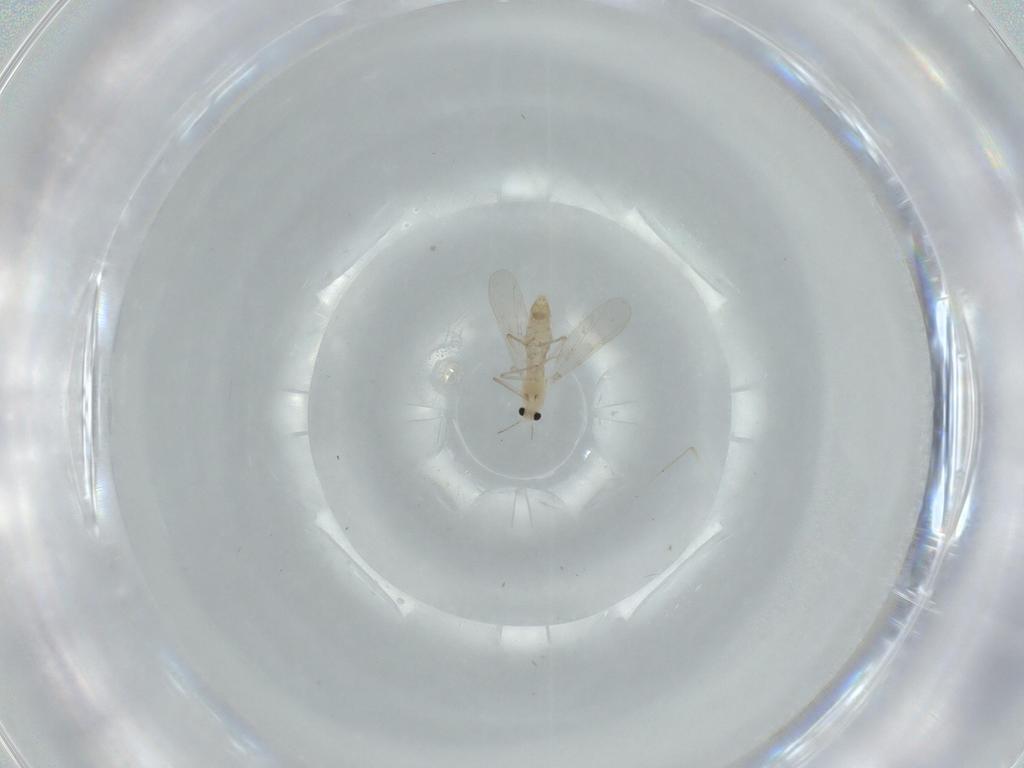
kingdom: Animalia
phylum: Arthropoda
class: Insecta
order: Diptera
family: Chironomidae
